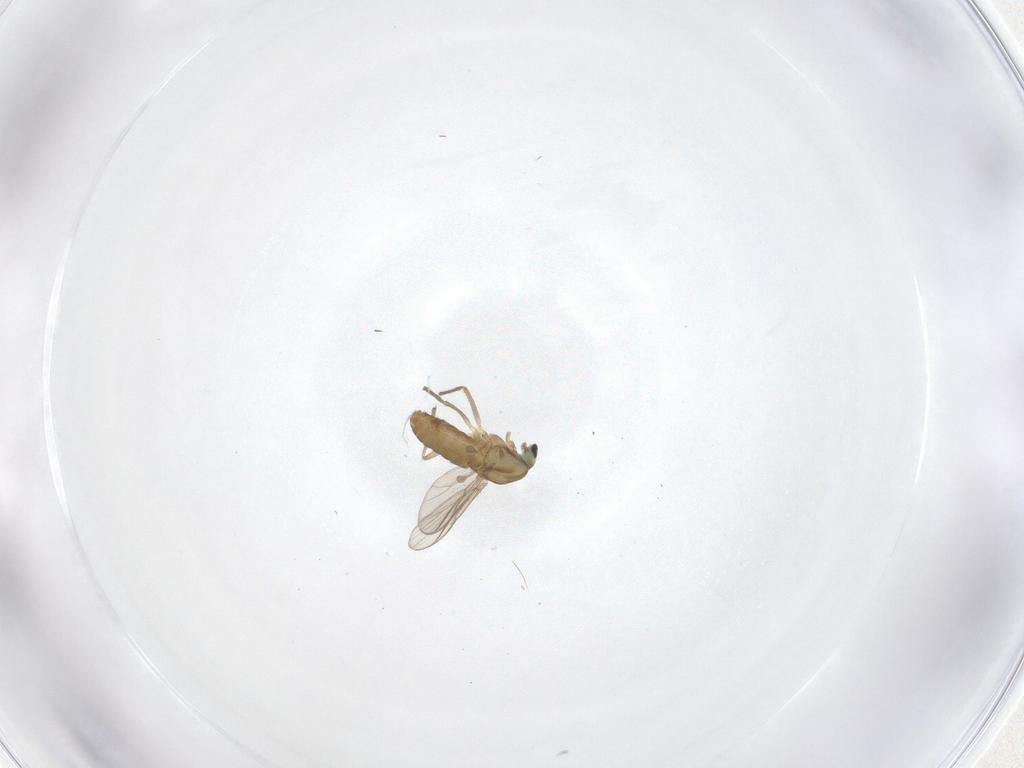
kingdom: Animalia
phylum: Arthropoda
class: Insecta
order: Diptera
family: Chironomidae
